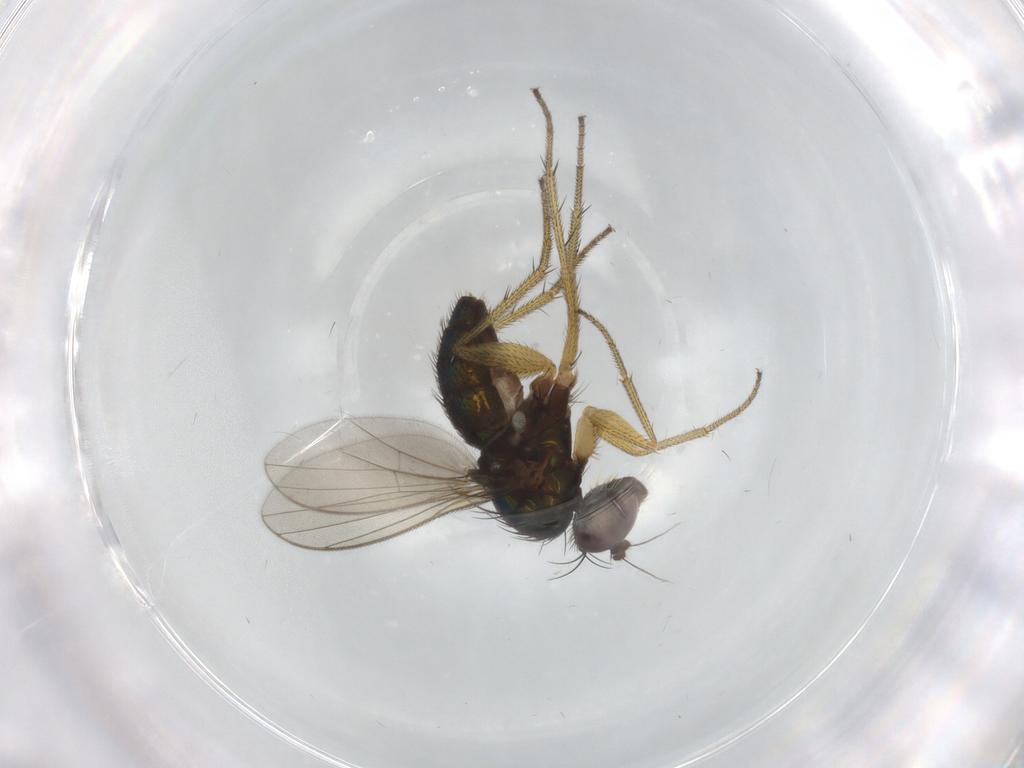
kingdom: Animalia
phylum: Arthropoda
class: Insecta
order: Diptera
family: Dolichopodidae
